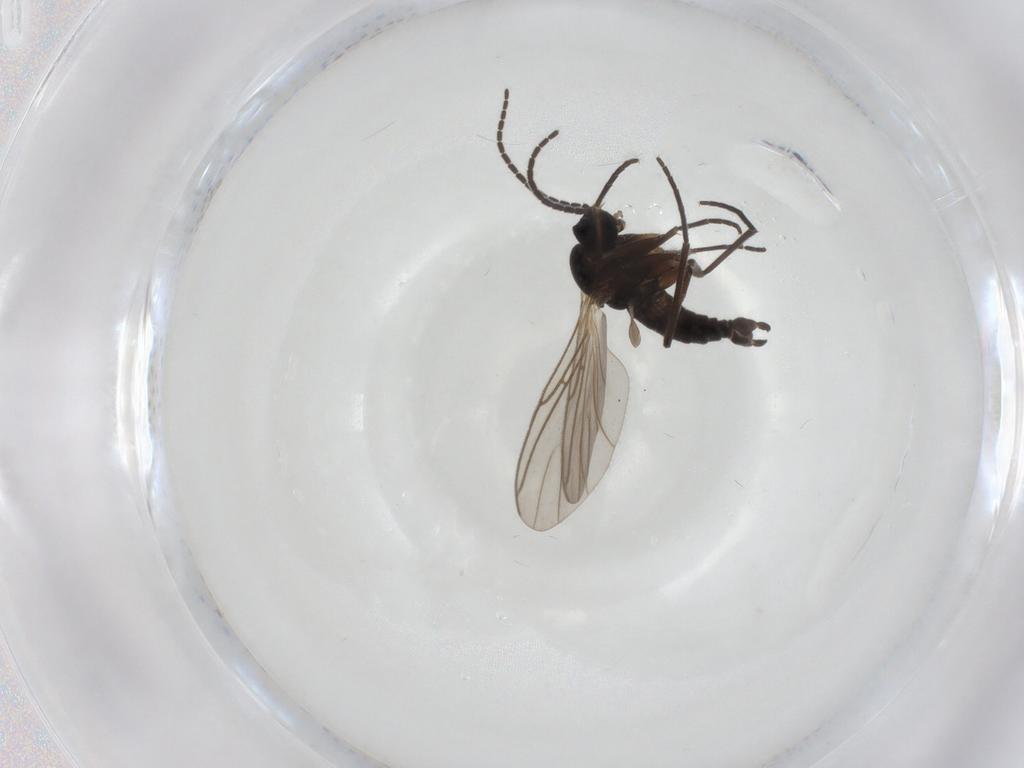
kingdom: Animalia
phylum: Arthropoda
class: Insecta
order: Diptera
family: Sciaridae
